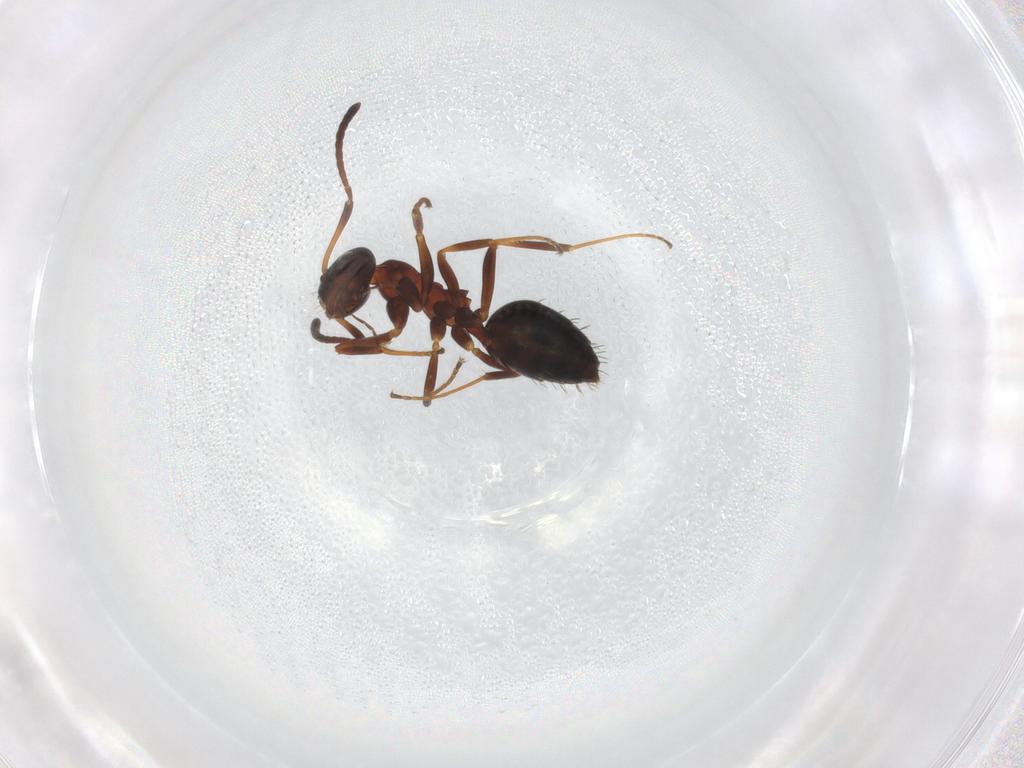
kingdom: Animalia
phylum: Arthropoda
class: Insecta
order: Hymenoptera
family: Formicidae
